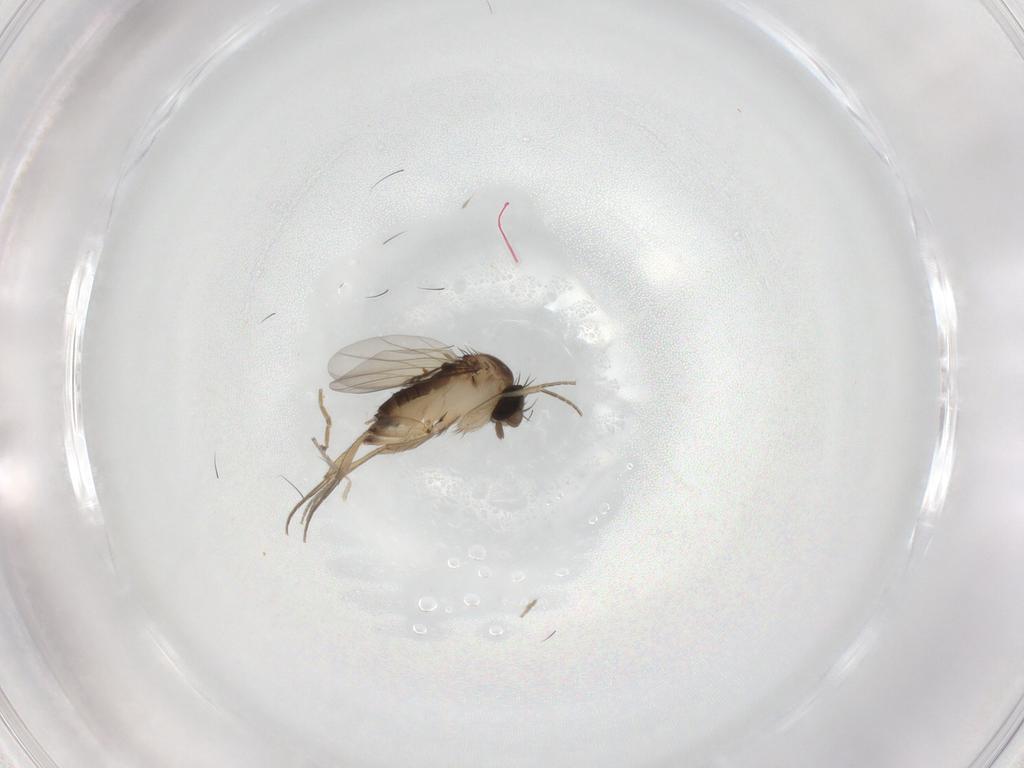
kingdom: Animalia
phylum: Arthropoda
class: Insecta
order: Diptera
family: Phoridae
